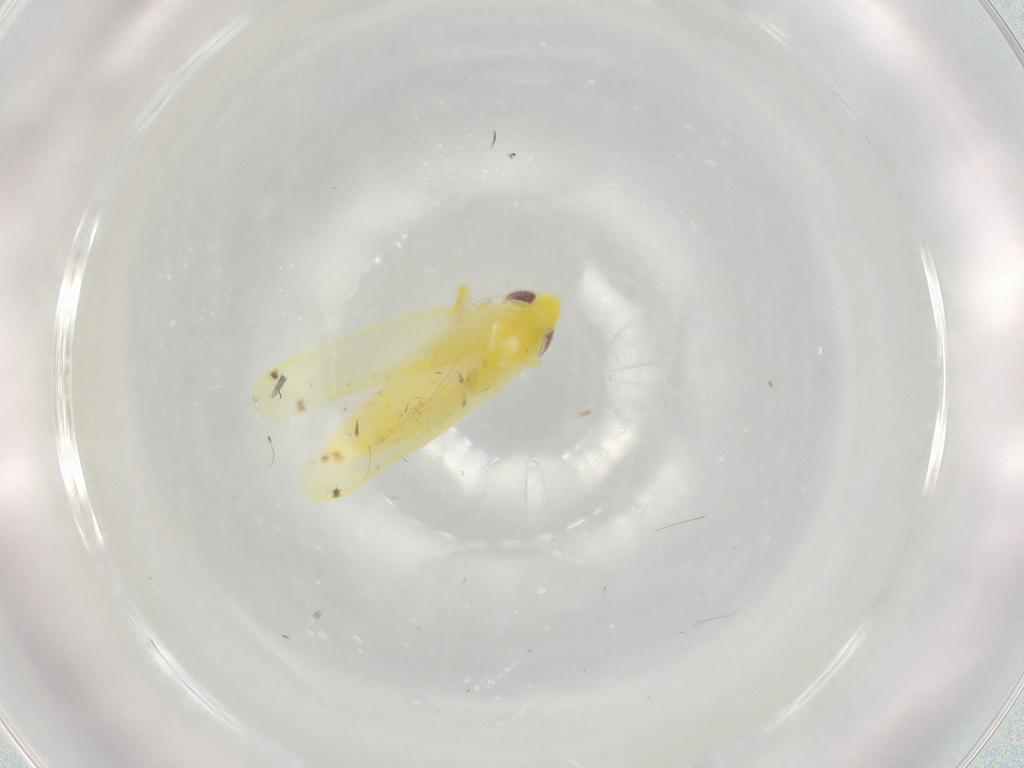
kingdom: Animalia
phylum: Arthropoda
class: Insecta
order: Hemiptera
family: Cicadellidae
